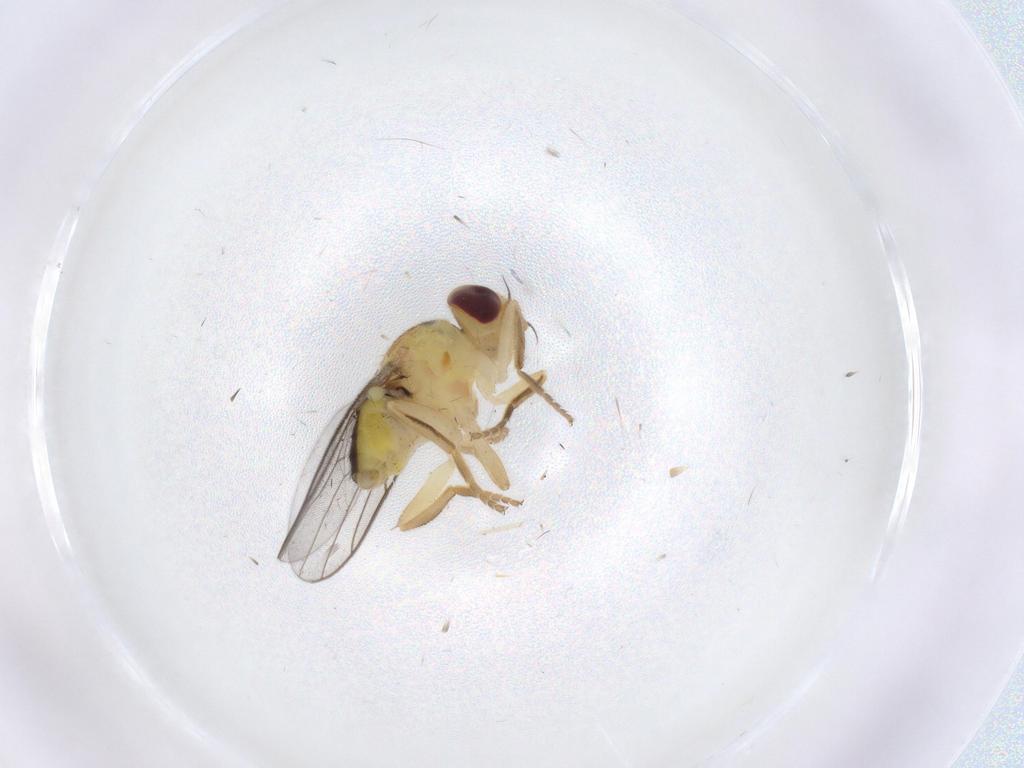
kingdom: Animalia
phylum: Arthropoda
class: Insecta
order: Diptera
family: Chloropidae
